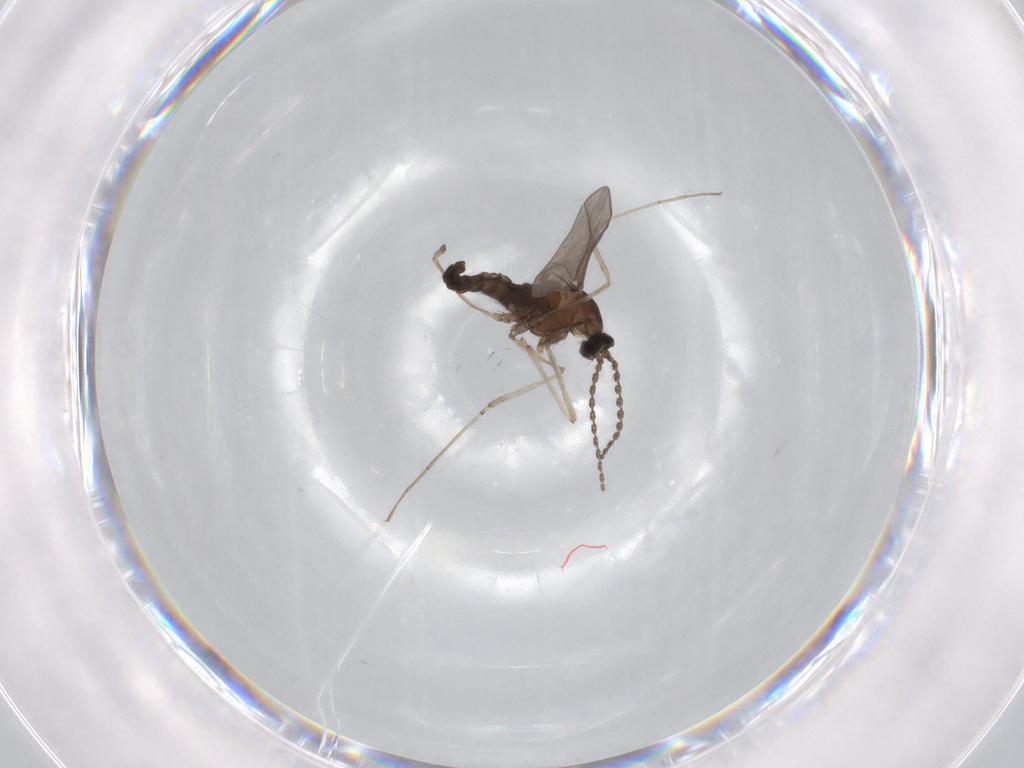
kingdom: Animalia
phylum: Arthropoda
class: Insecta
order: Diptera
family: Cecidomyiidae
